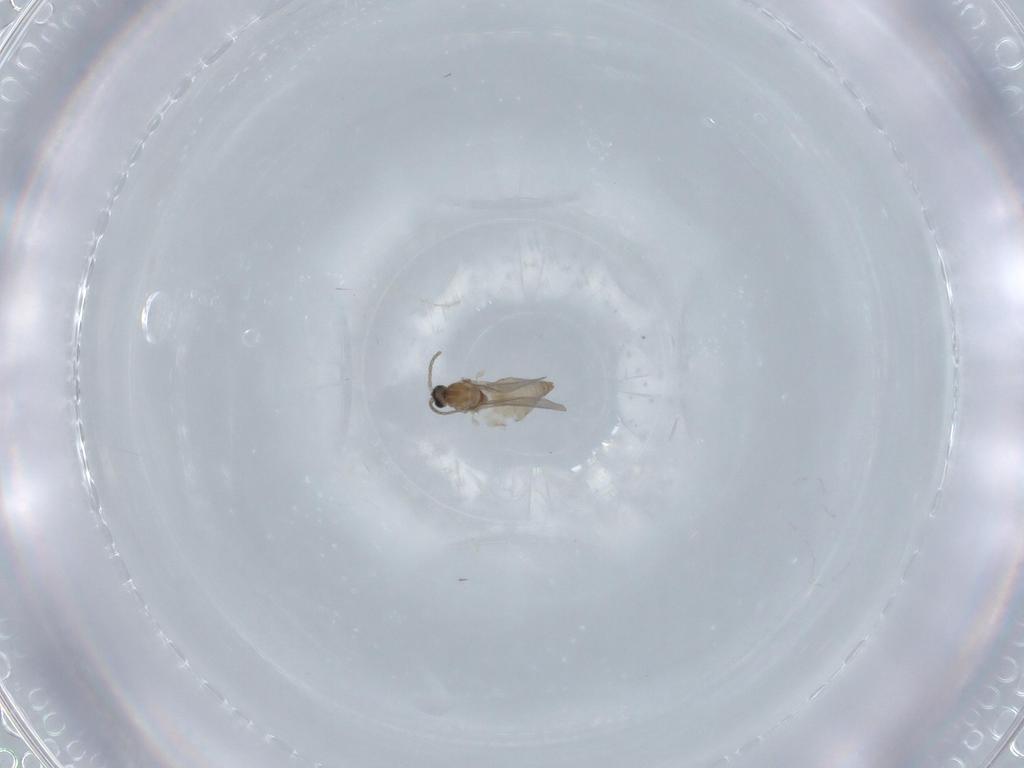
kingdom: Animalia
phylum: Arthropoda
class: Insecta
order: Diptera
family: Cecidomyiidae
